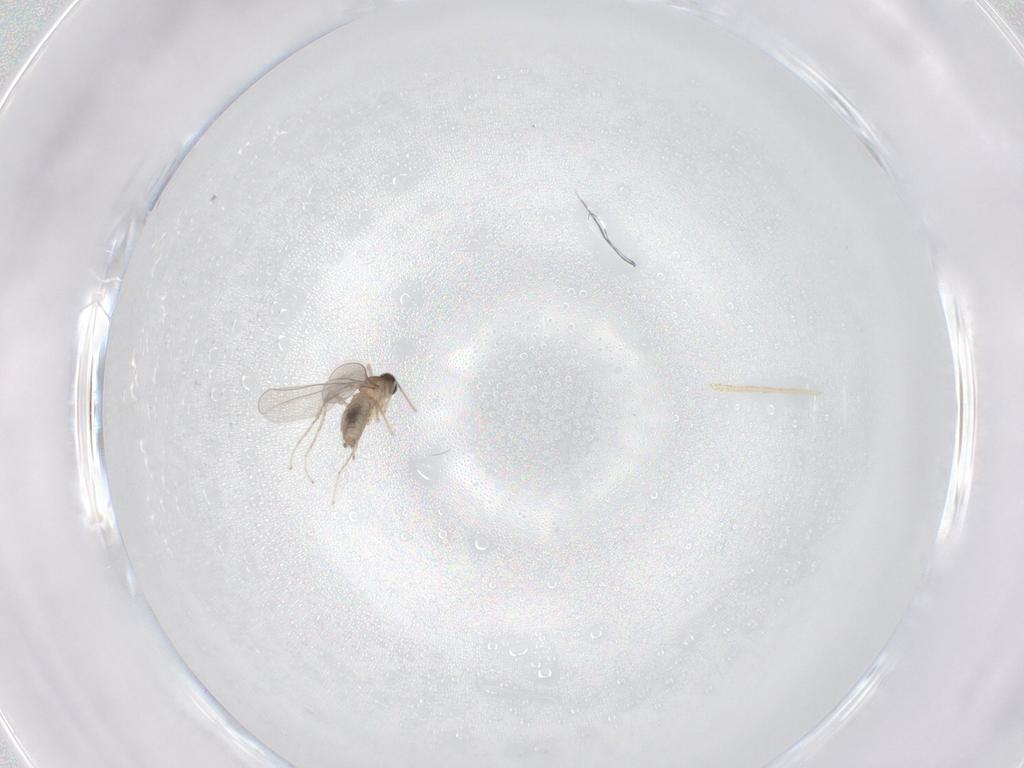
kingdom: Animalia
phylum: Arthropoda
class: Insecta
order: Diptera
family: Cecidomyiidae
